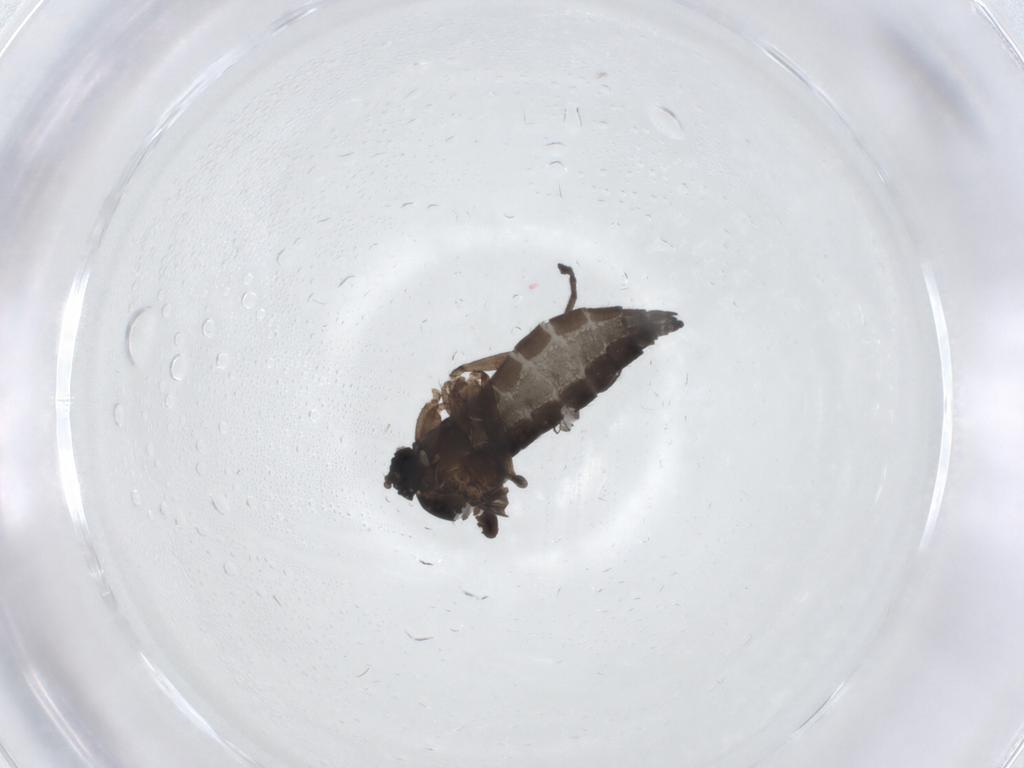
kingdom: Animalia
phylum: Arthropoda
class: Insecta
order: Diptera
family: Sciaridae
